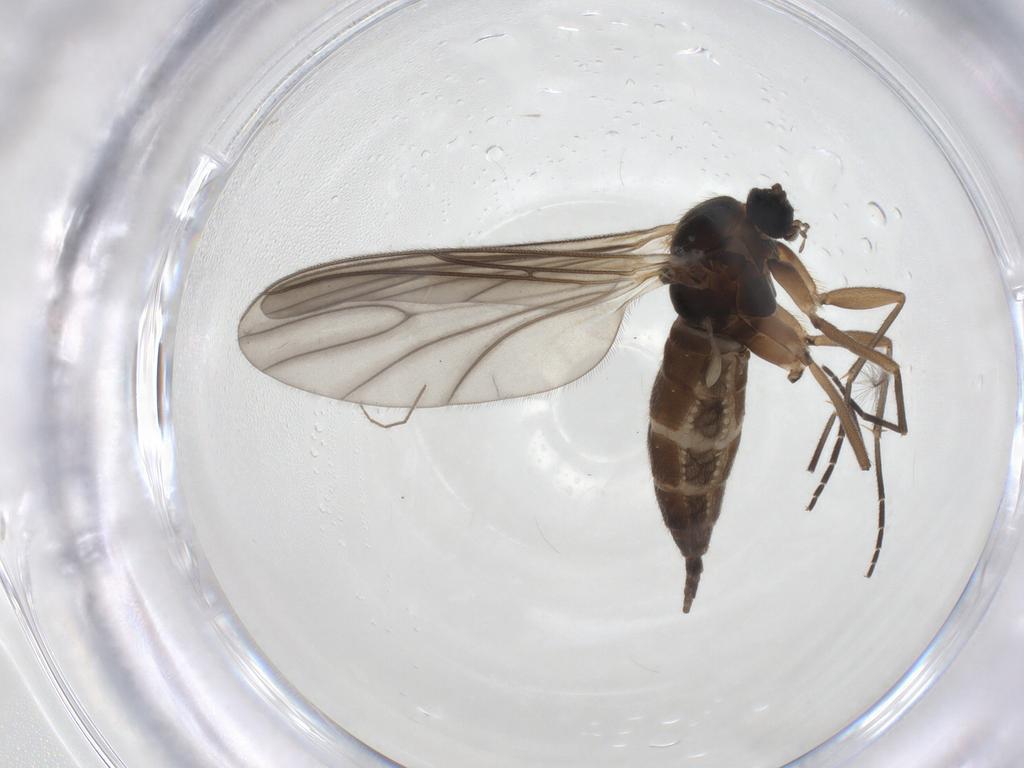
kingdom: Animalia
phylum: Arthropoda
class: Insecta
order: Diptera
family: Sciaridae
